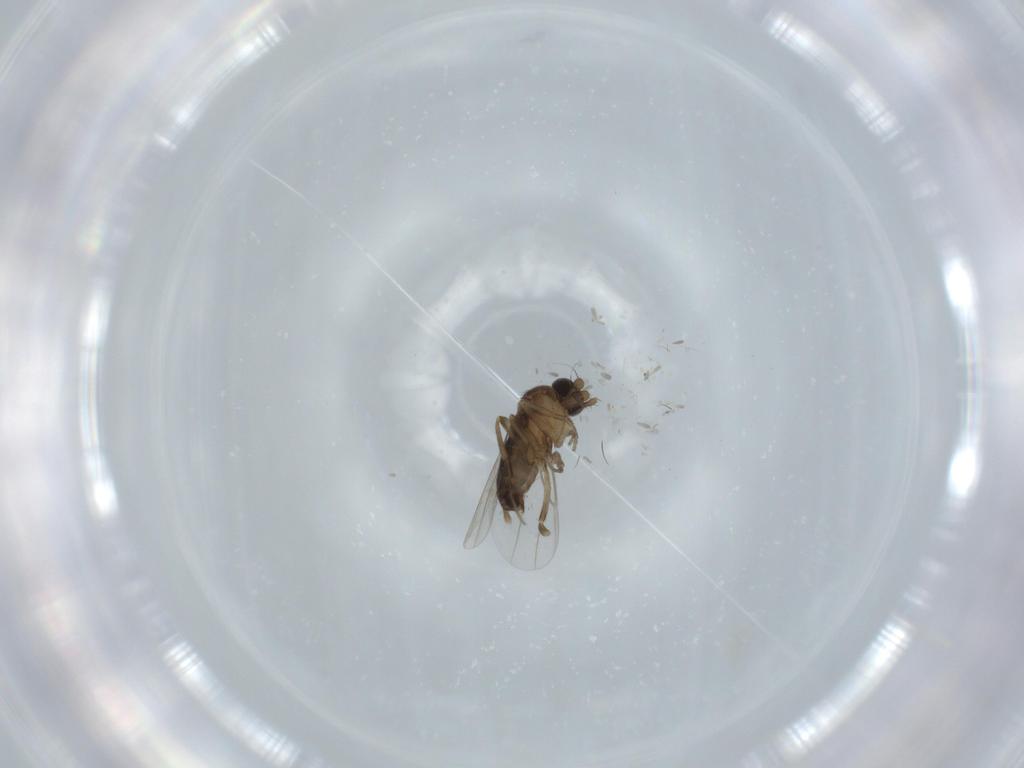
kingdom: Animalia
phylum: Arthropoda
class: Insecta
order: Diptera
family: Phoridae
